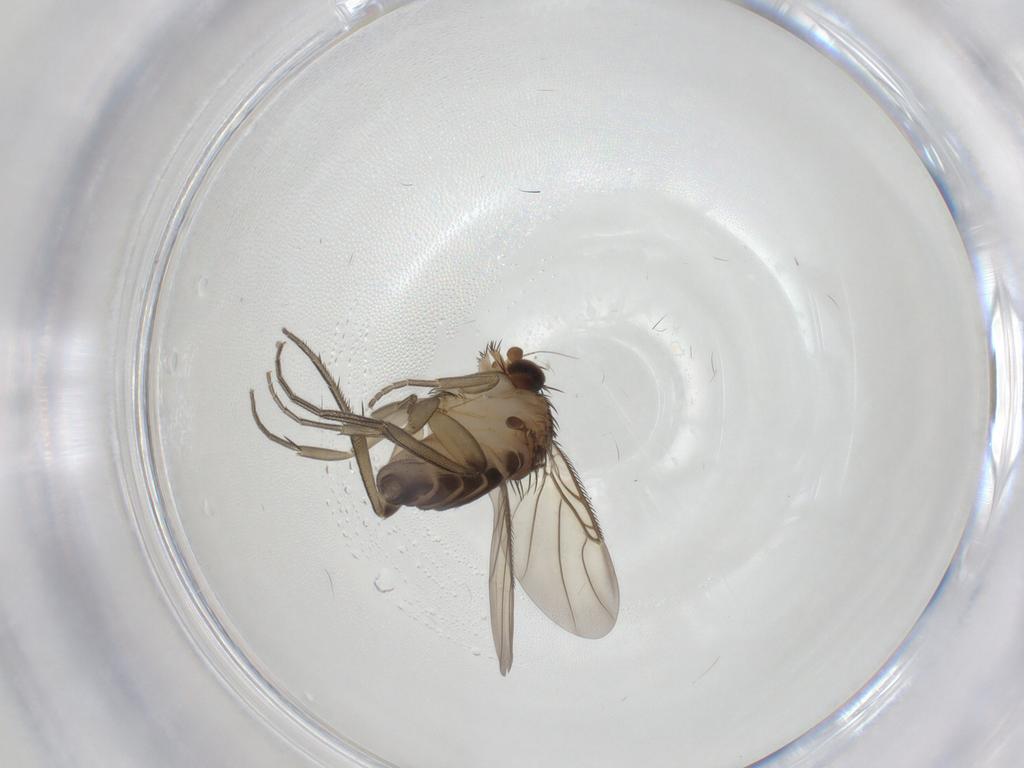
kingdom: Animalia
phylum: Arthropoda
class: Insecta
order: Diptera
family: Phoridae
